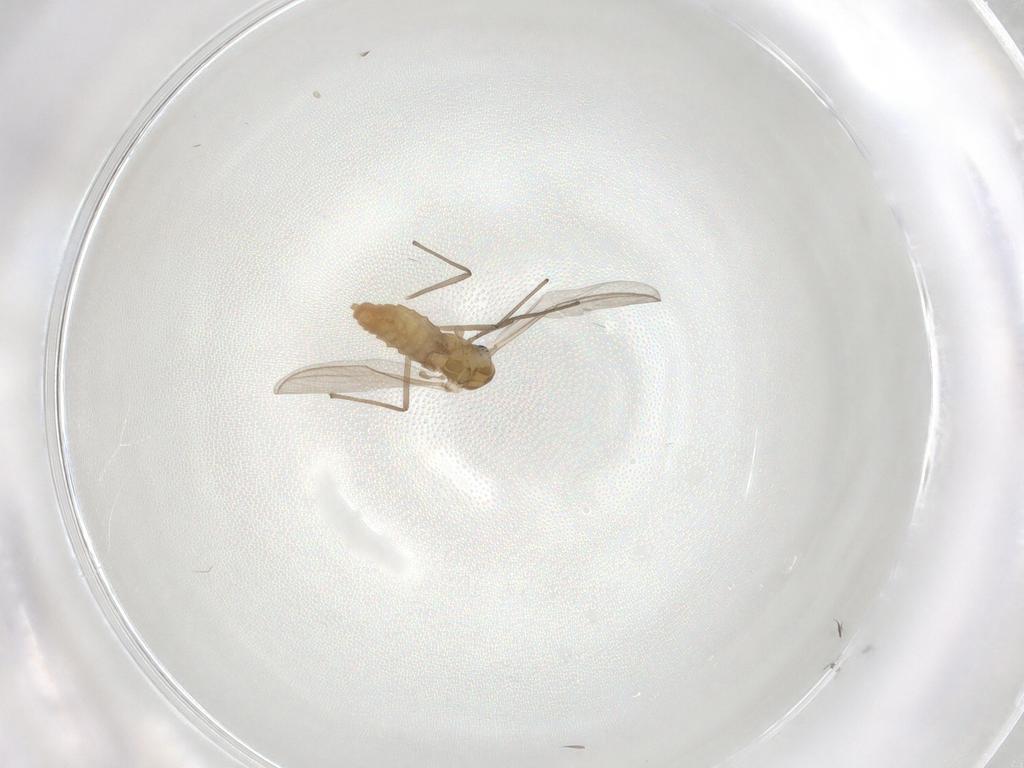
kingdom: Animalia
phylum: Arthropoda
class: Insecta
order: Diptera
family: Chironomidae
